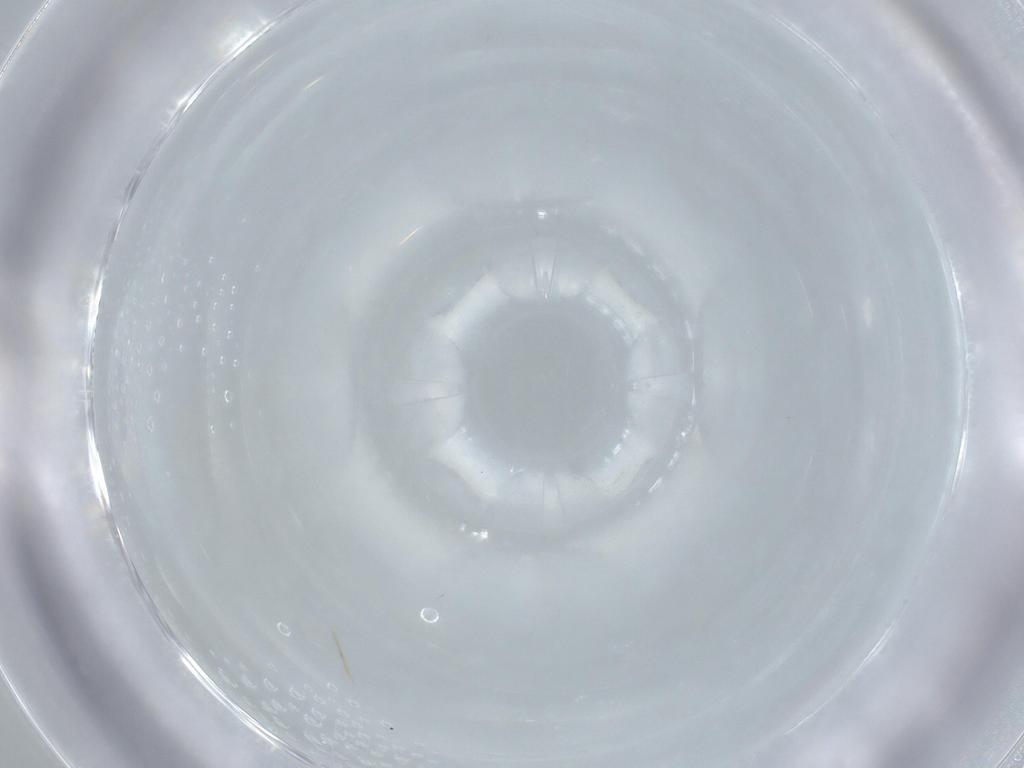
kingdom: Animalia
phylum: Arthropoda
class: Insecta
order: Diptera
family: Cecidomyiidae
